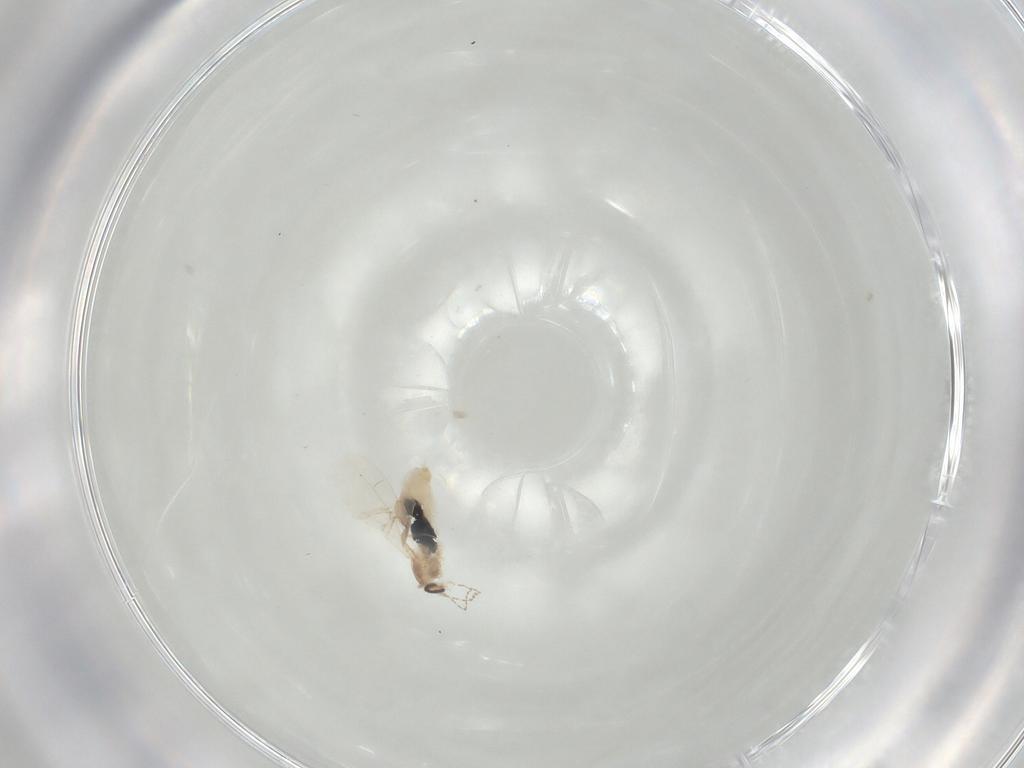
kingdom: Animalia
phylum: Arthropoda
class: Insecta
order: Diptera
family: Cecidomyiidae
